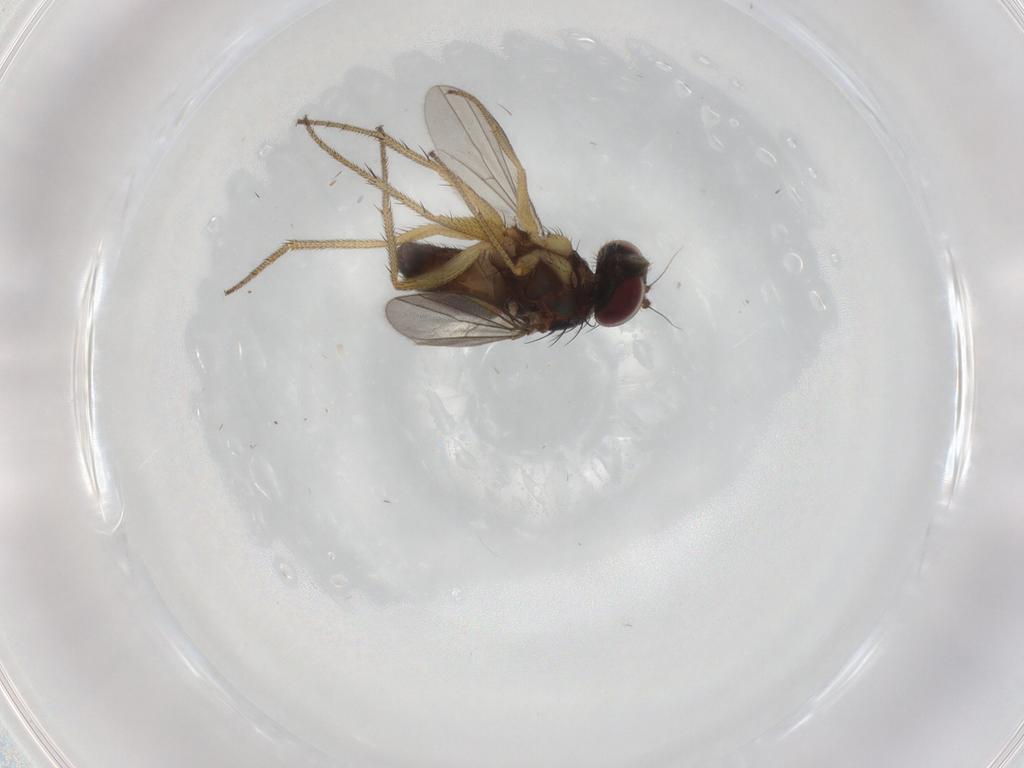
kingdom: Animalia
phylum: Arthropoda
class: Insecta
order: Diptera
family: Dolichopodidae
